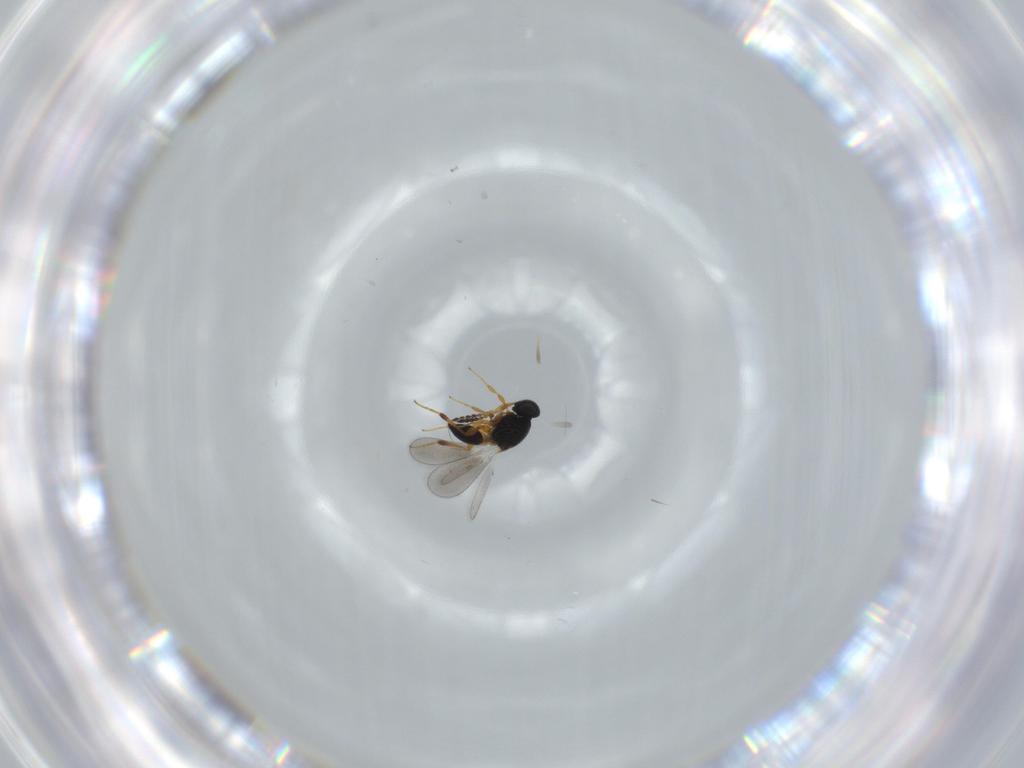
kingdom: Animalia
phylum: Arthropoda
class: Insecta
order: Hymenoptera
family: Platygastridae
